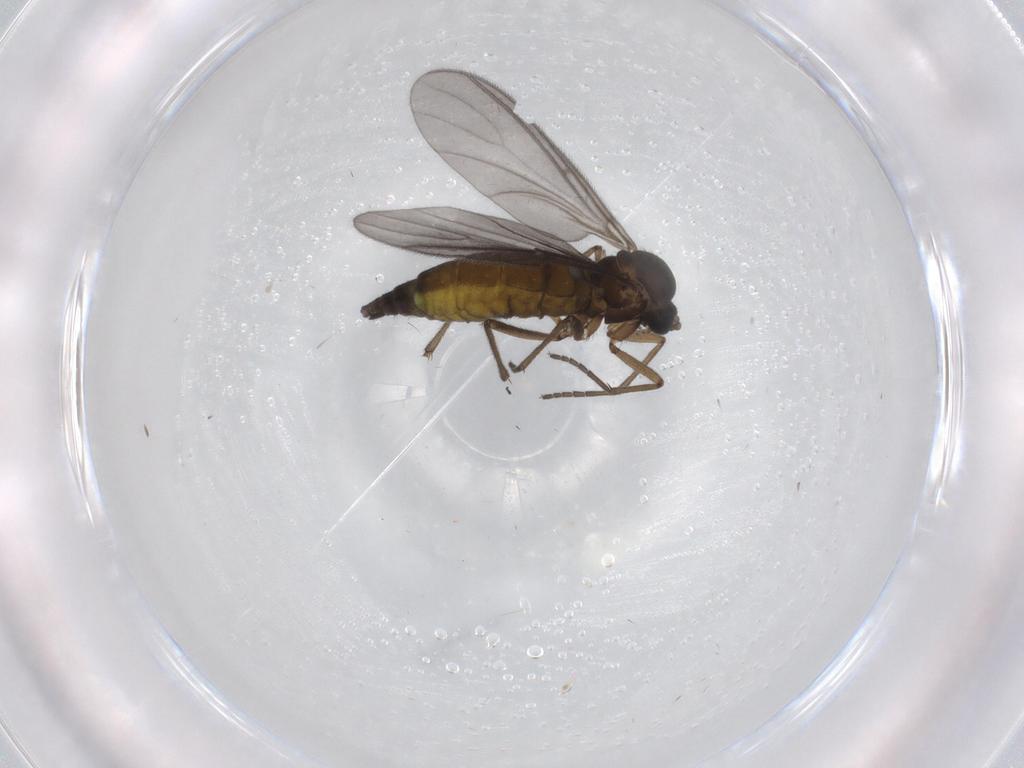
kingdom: Animalia
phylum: Arthropoda
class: Insecta
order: Diptera
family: Sciaridae
